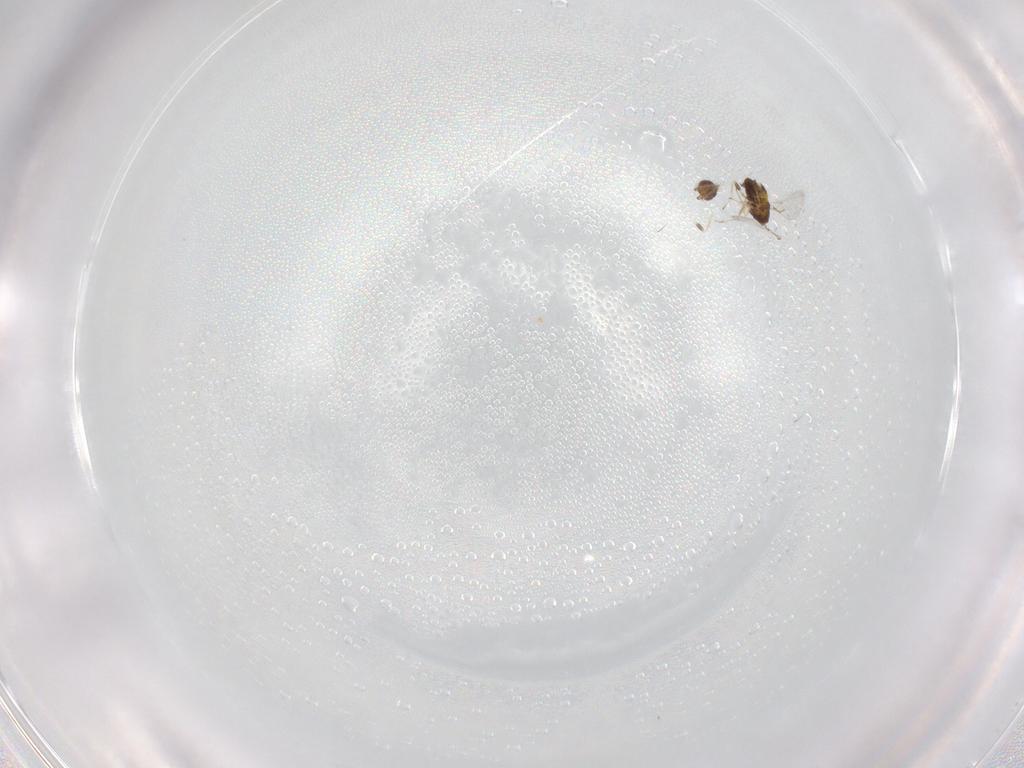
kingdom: Animalia
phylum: Arthropoda
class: Insecta
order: Hymenoptera
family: Trichogrammatidae
